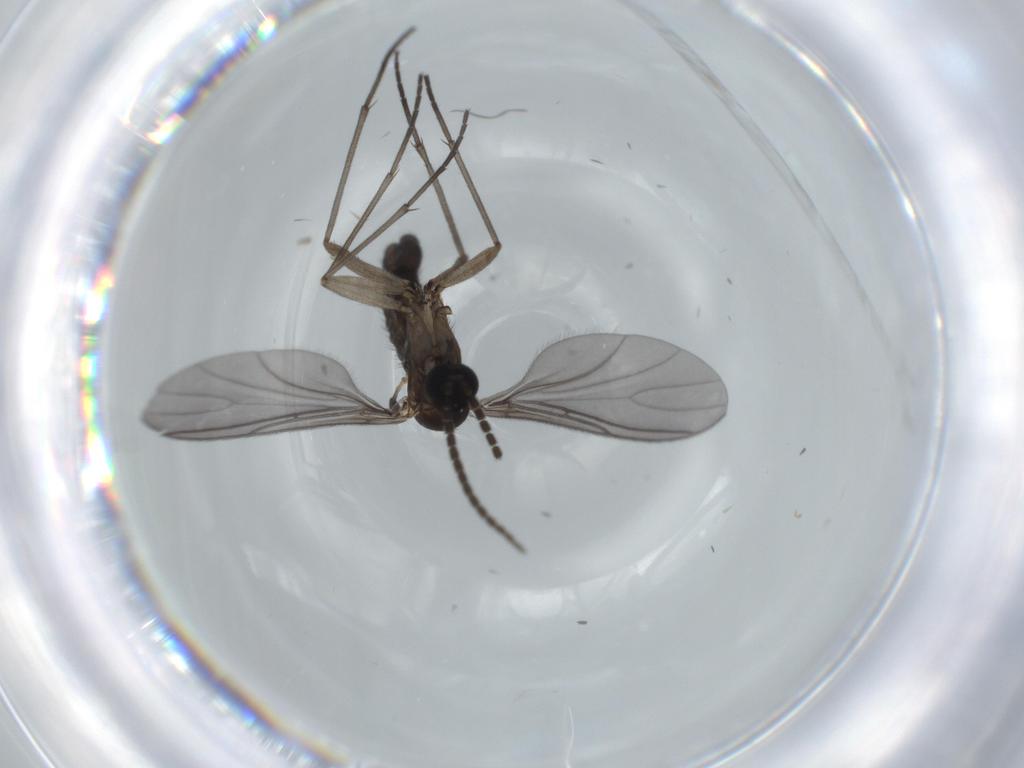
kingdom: Animalia
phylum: Arthropoda
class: Insecta
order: Diptera
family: Sciaridae
